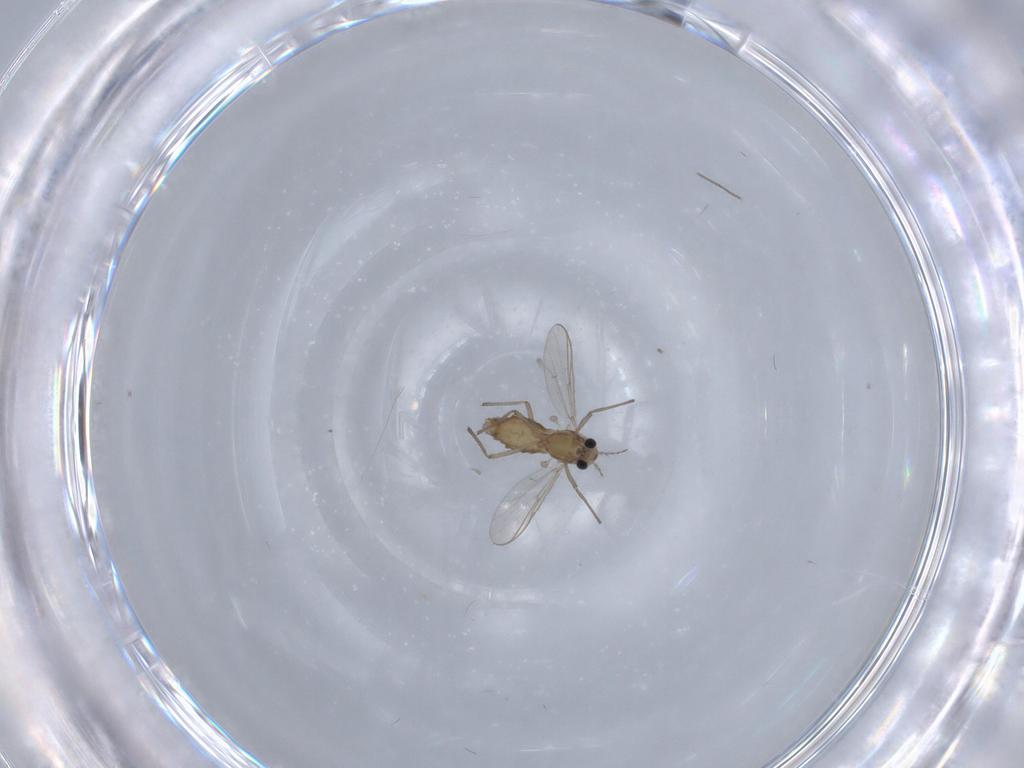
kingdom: Animalia
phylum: Arthropoda
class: Insecta
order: Diptera
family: Chironomidae
